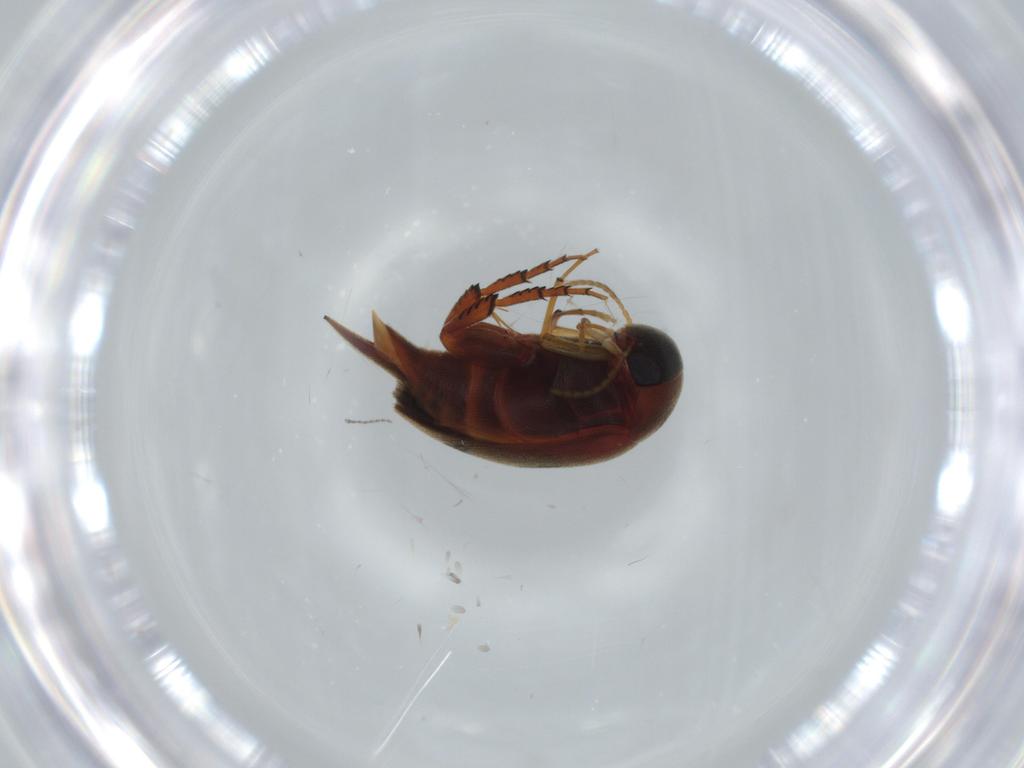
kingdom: Animalia
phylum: Arthropoda
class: Insecta
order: Coleoptera
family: Mordellidae
